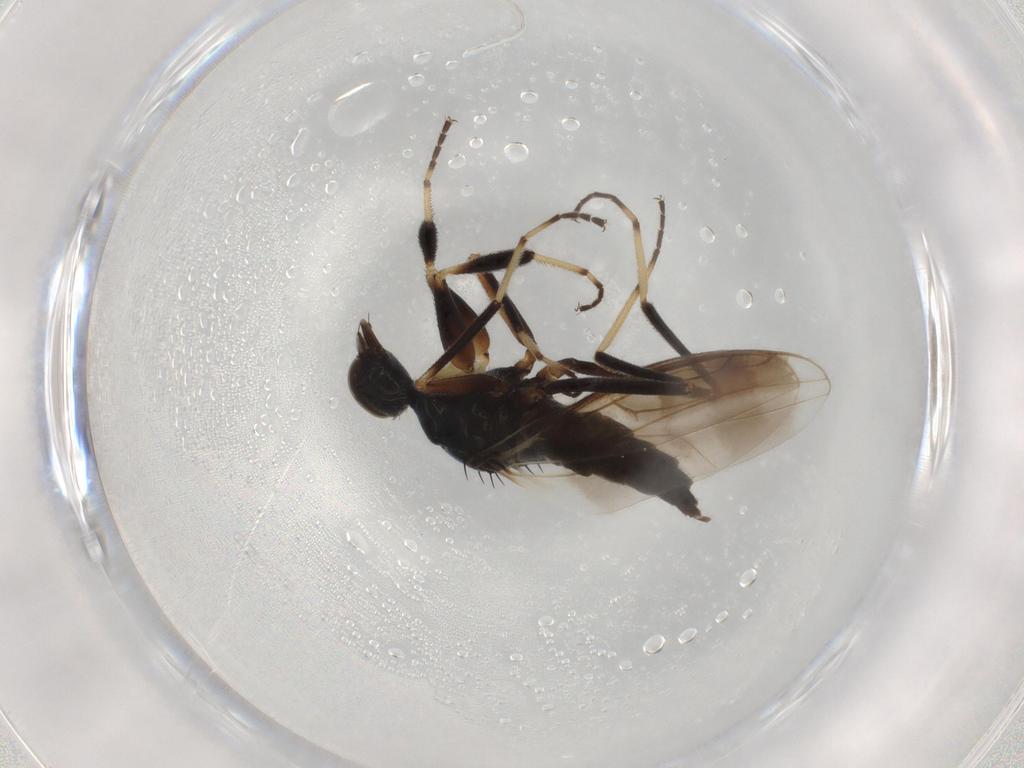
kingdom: Animalia
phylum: Arthropoda
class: Insecta
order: Diptera
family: Hybotidae
